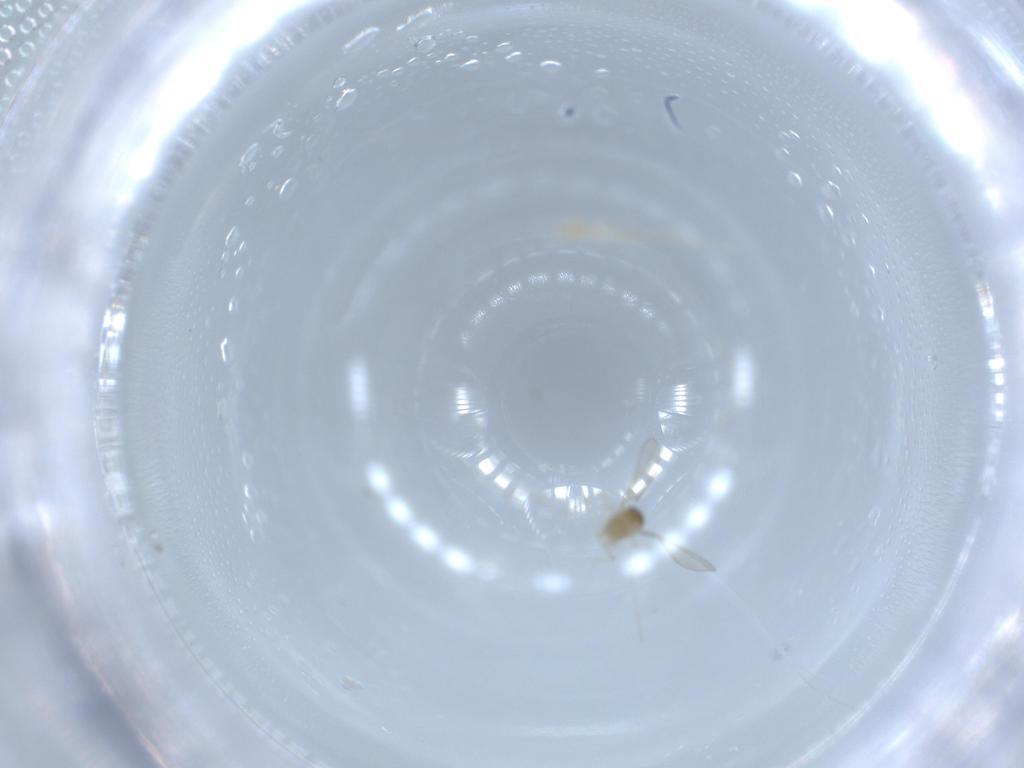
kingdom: Animalia
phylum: Arthropoda
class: Insecta
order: Diptera
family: Cecidomyiidae
